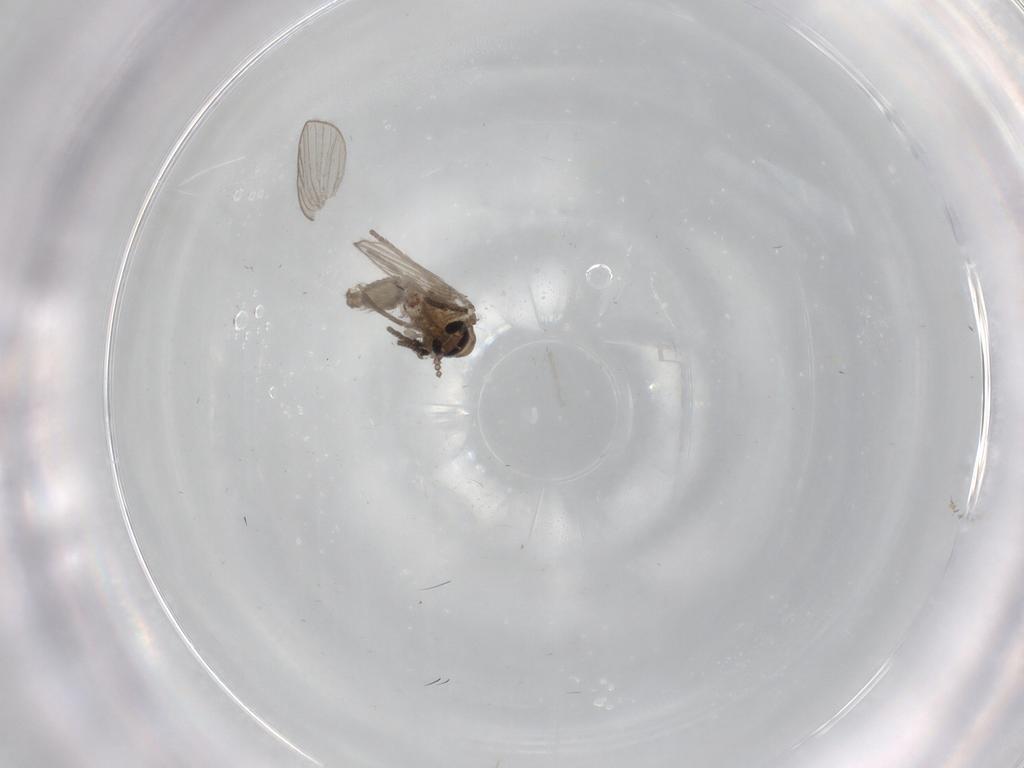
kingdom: Animalia
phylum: Arthropoda
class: Insecta
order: Diptera
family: Psychodidae
